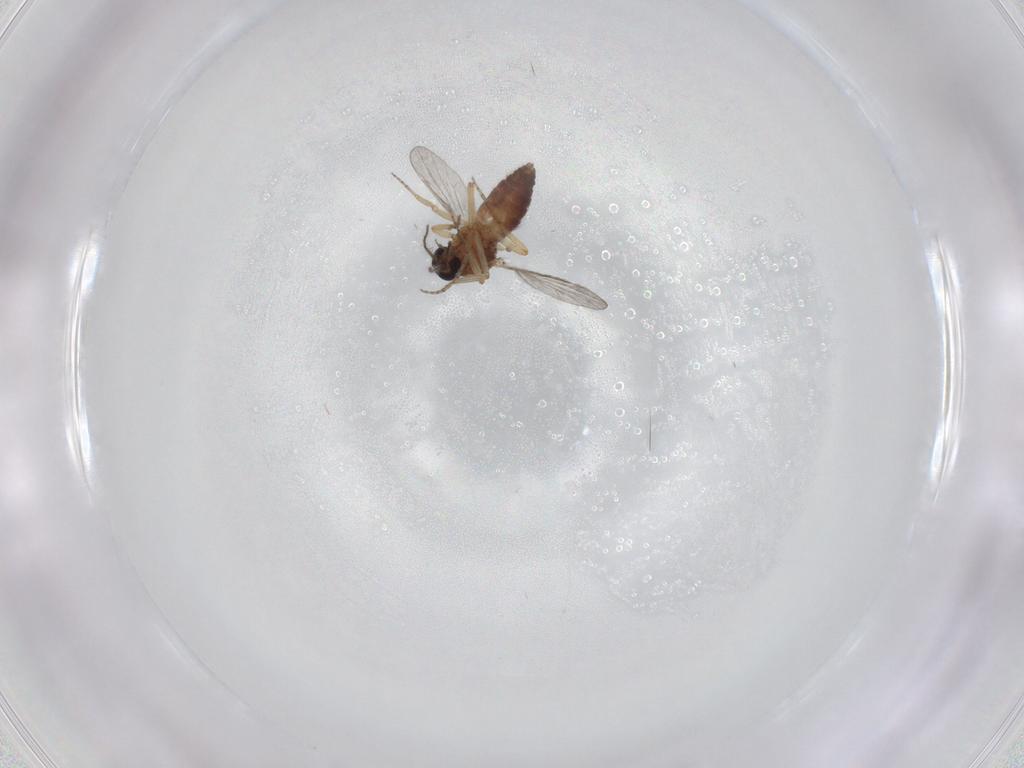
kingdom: Animalia
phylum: Arthropoda
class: Insecta
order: Diptera
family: Ceratopogonidae
